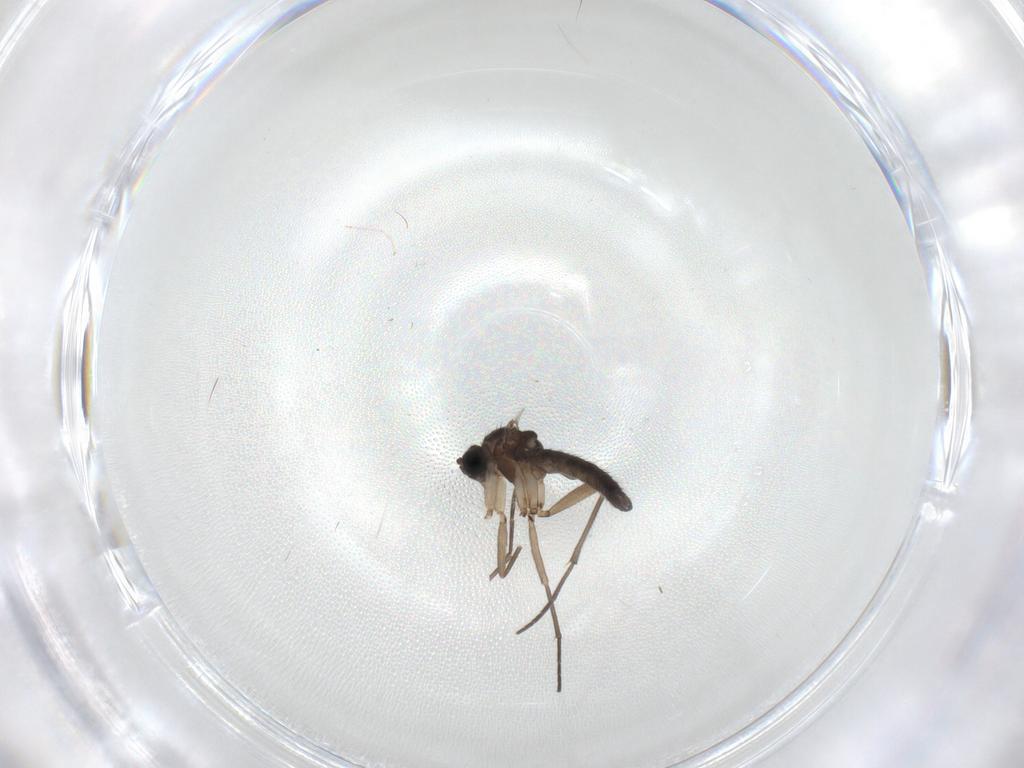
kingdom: Animalia
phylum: Arthropoda
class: Insecta
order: Diptera
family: Sciaridae
